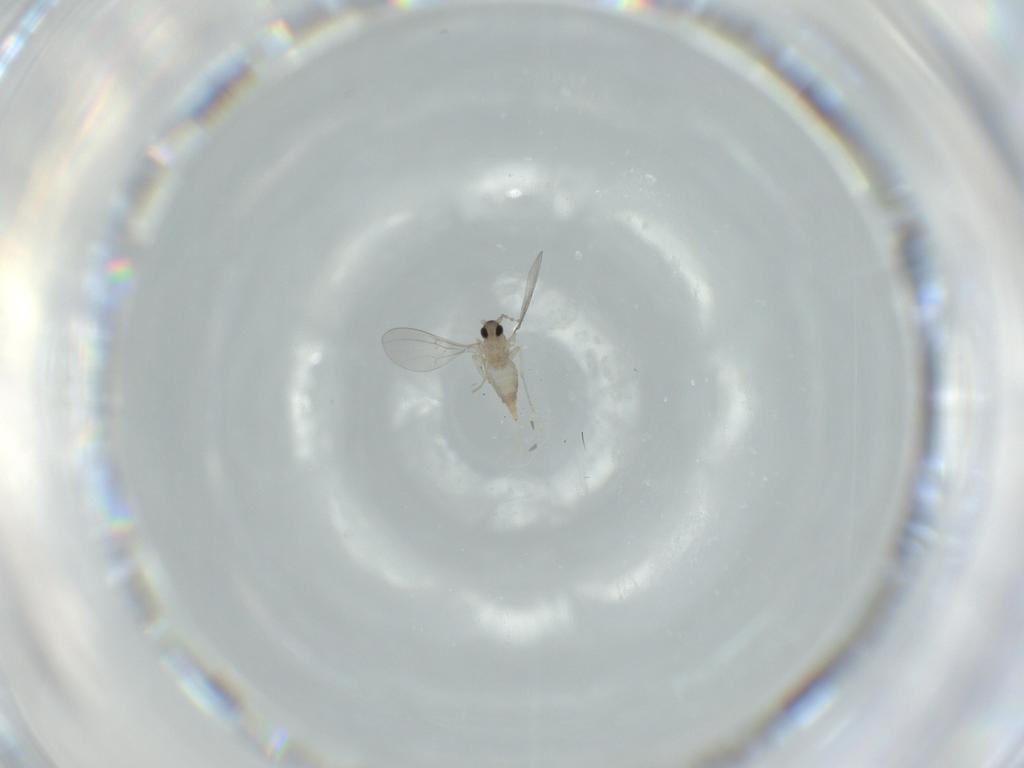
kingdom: Animalia
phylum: Arthropoda
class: Insecta
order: Diptera
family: Cecidomyiidae
